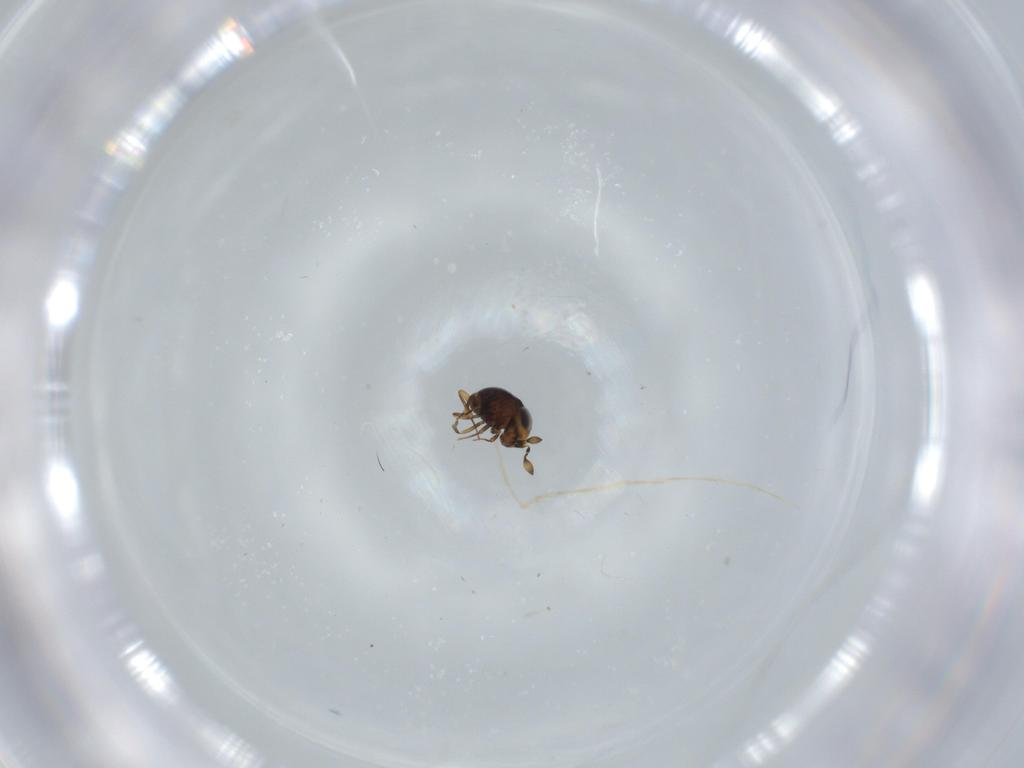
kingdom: Animalia
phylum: Arthropoda
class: Insecta
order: Hymenoptera
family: Scelionidae
